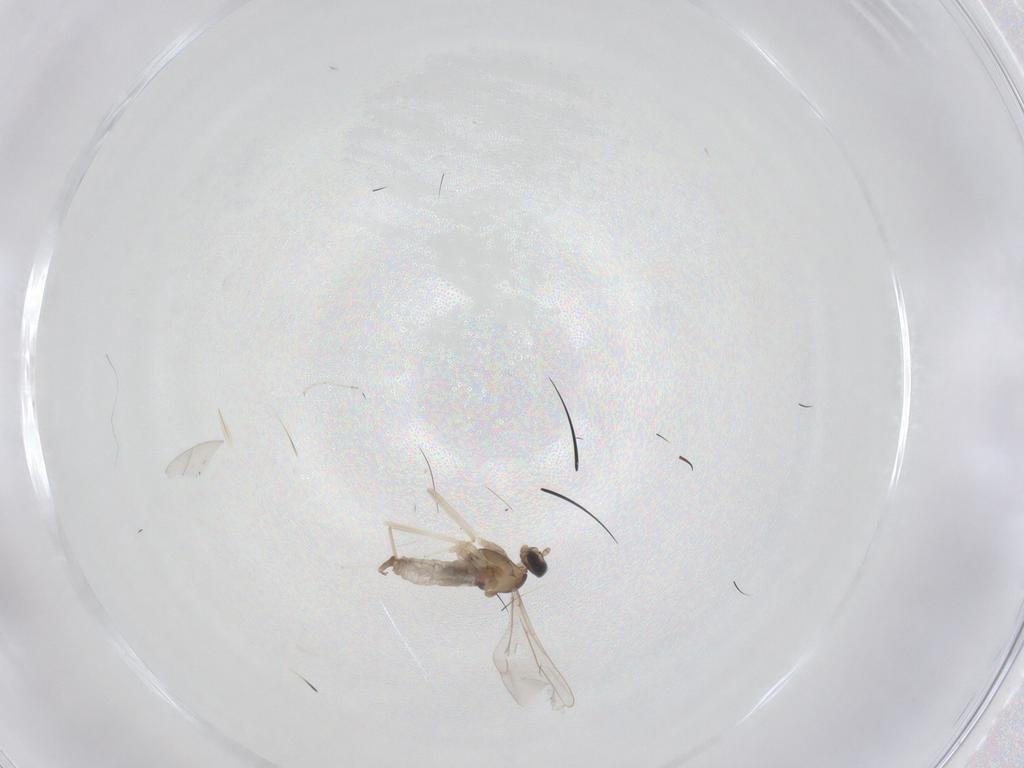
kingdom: Animalia
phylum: Arthropoda
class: Insecta
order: Diptera
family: Cecidomyiidae
